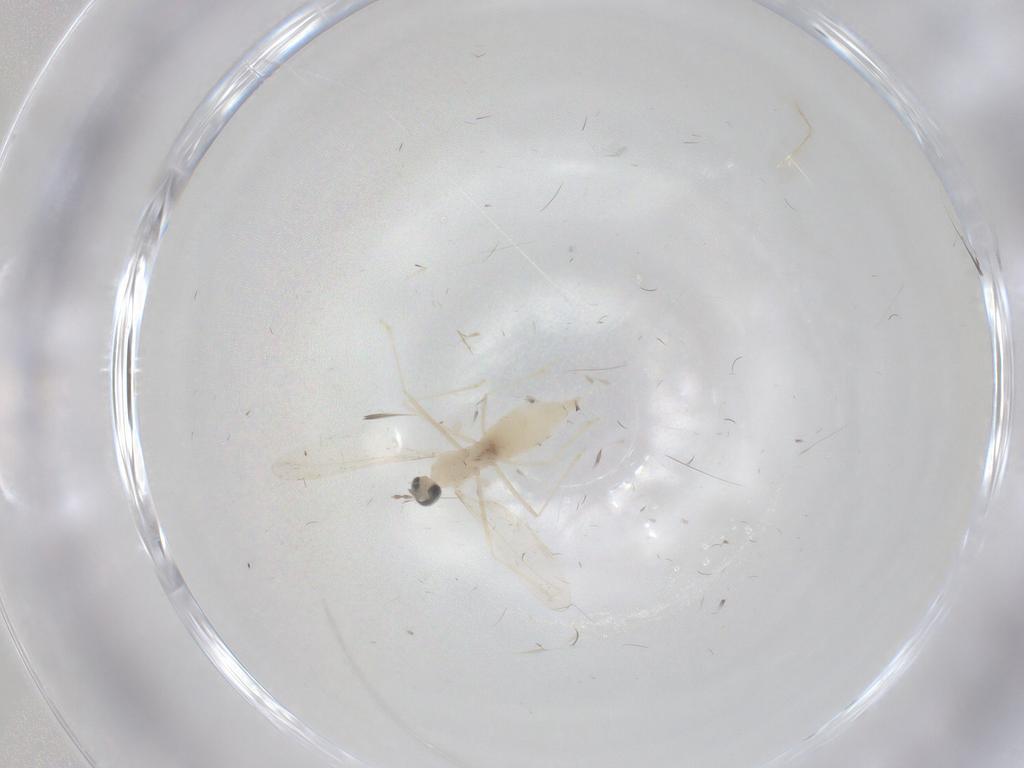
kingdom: Animalia
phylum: Arthropoda
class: Insecta
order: Diptera
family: Cecidomyiidae
